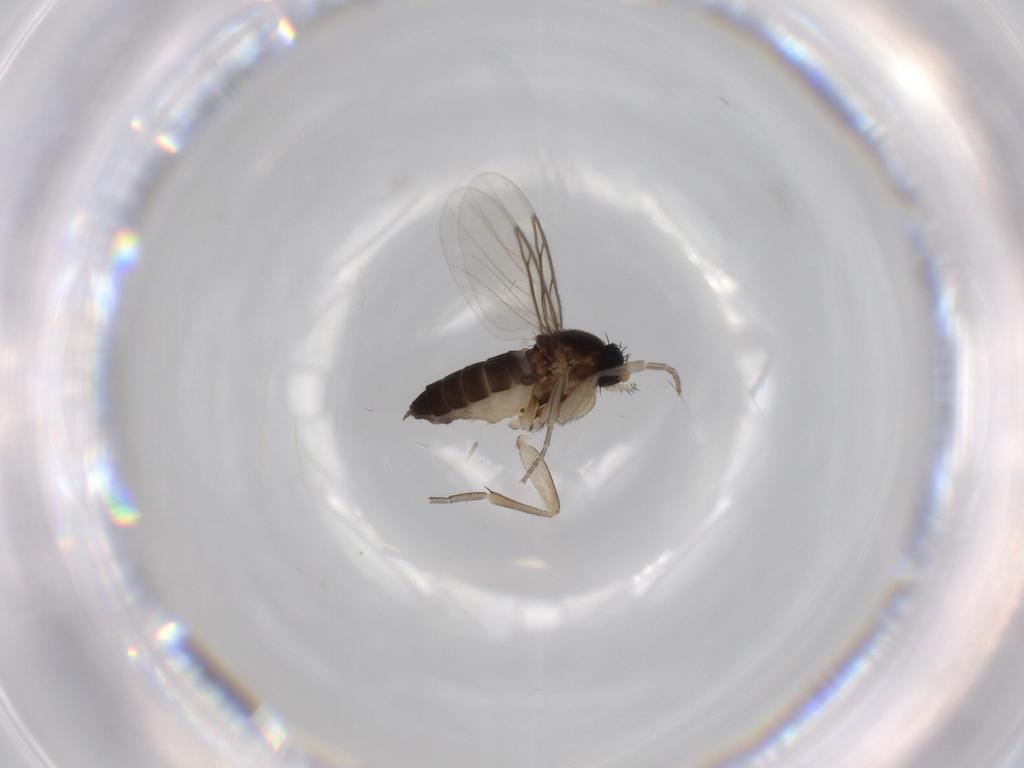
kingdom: Animalia
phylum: Arthropoda
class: Insecta
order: Diptera
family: Phoridae
